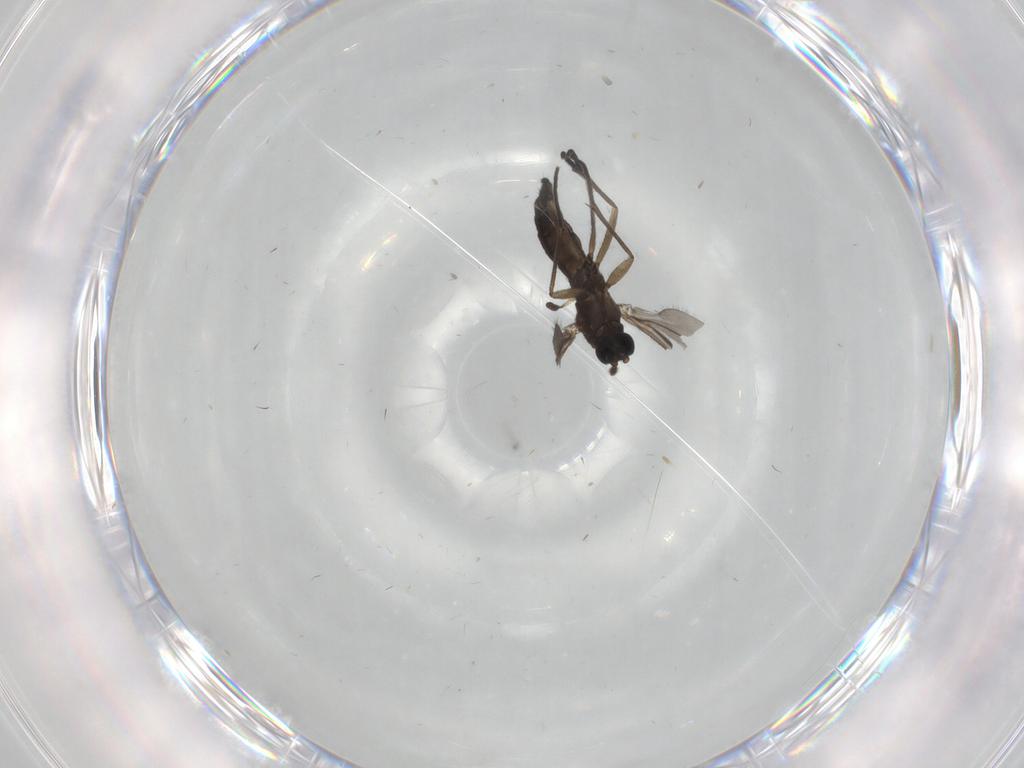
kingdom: Animalia
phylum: Arthropoda
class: Insecta
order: Diptera
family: Sciaridae
